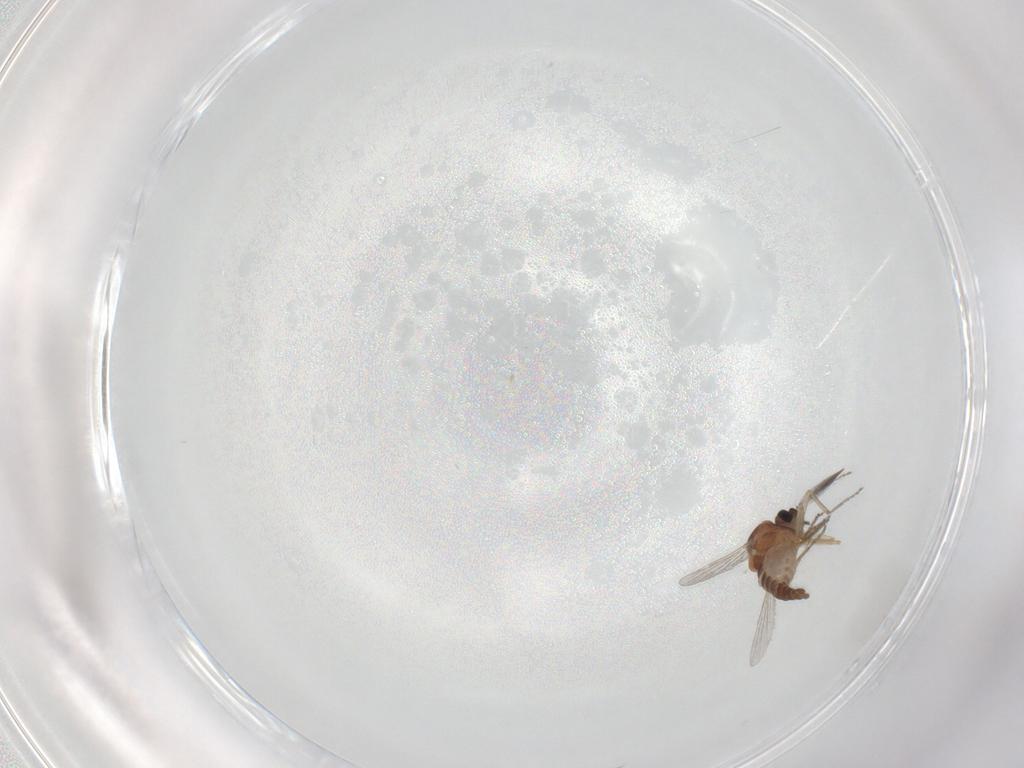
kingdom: Animalia
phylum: Arthropoda
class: Insecta
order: Diptera
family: Ceratopogonidae
